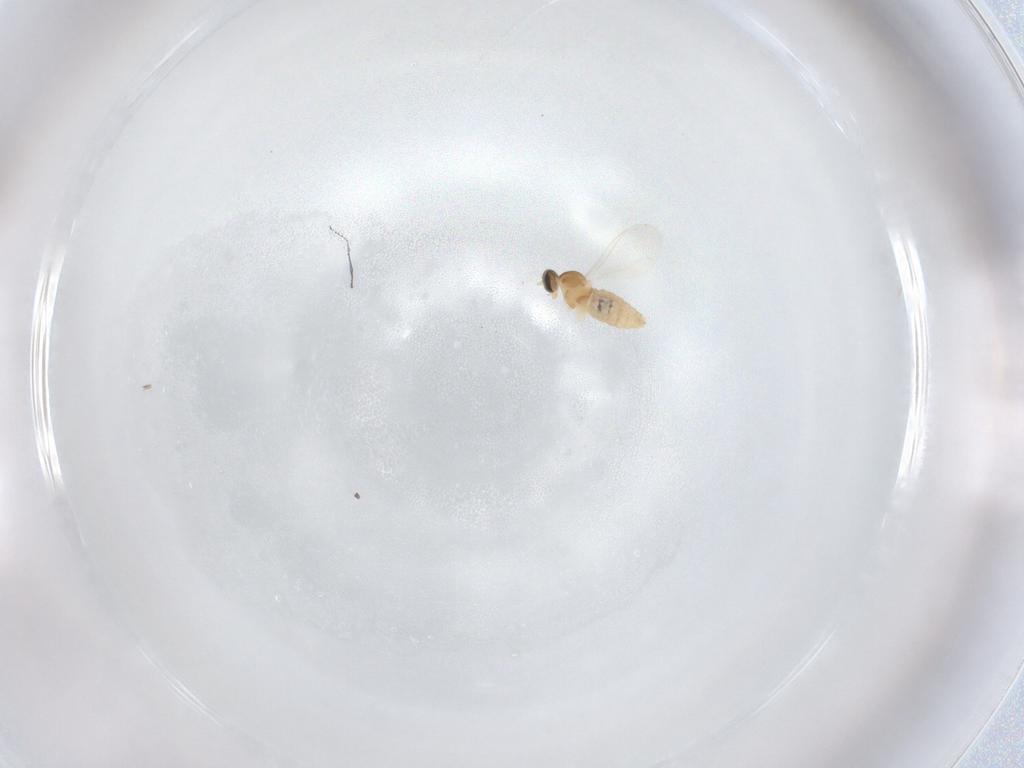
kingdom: Animalia
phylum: Arthropoda
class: Insecta
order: Diptera
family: Cecidomyiidae
